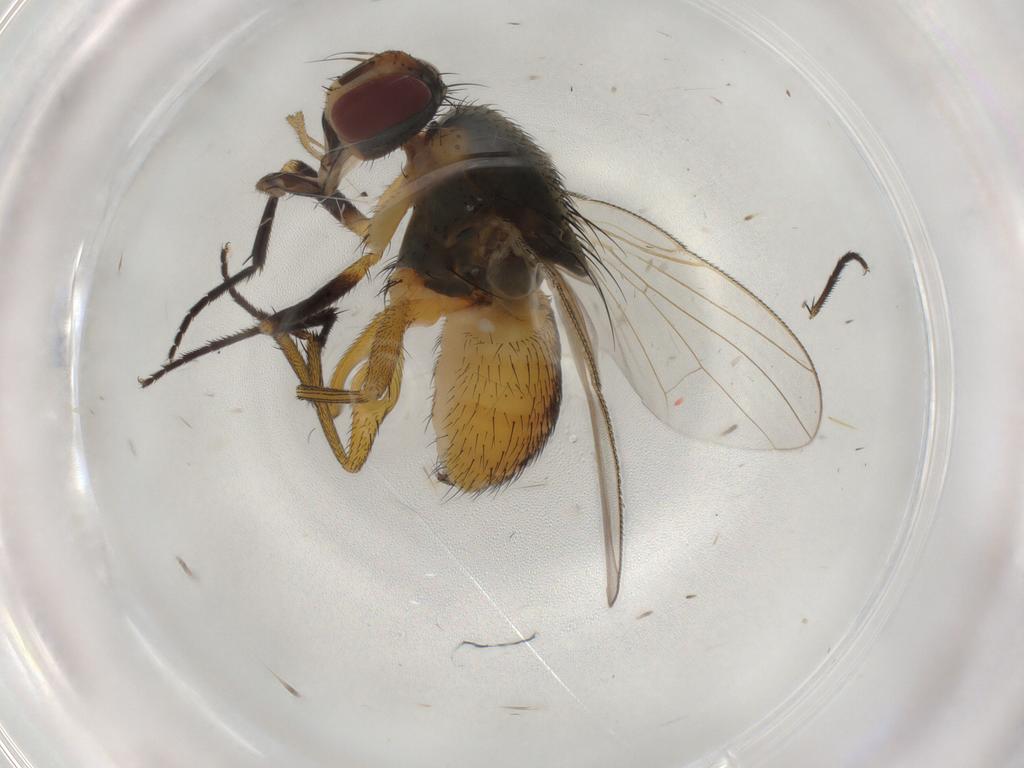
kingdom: Animalia
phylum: Arthropoda
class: Insecta
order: Diptera
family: Muscidae
